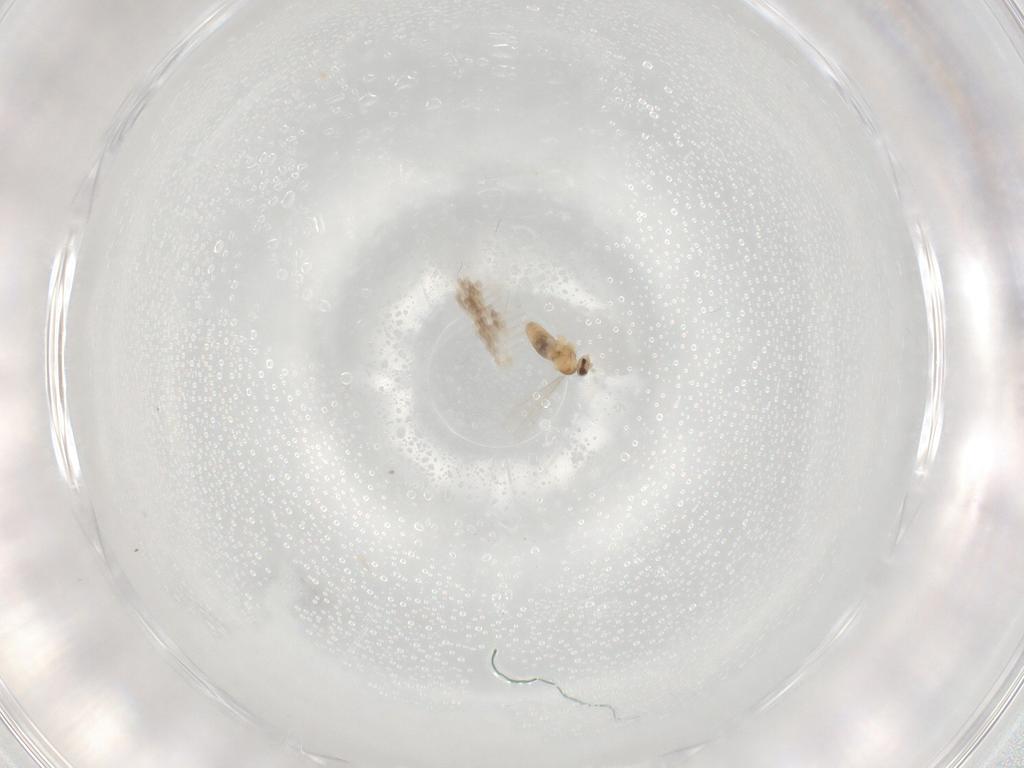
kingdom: Animalia
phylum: Arthropoda
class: Insecta
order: Diptera
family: Cecidomyiidae
